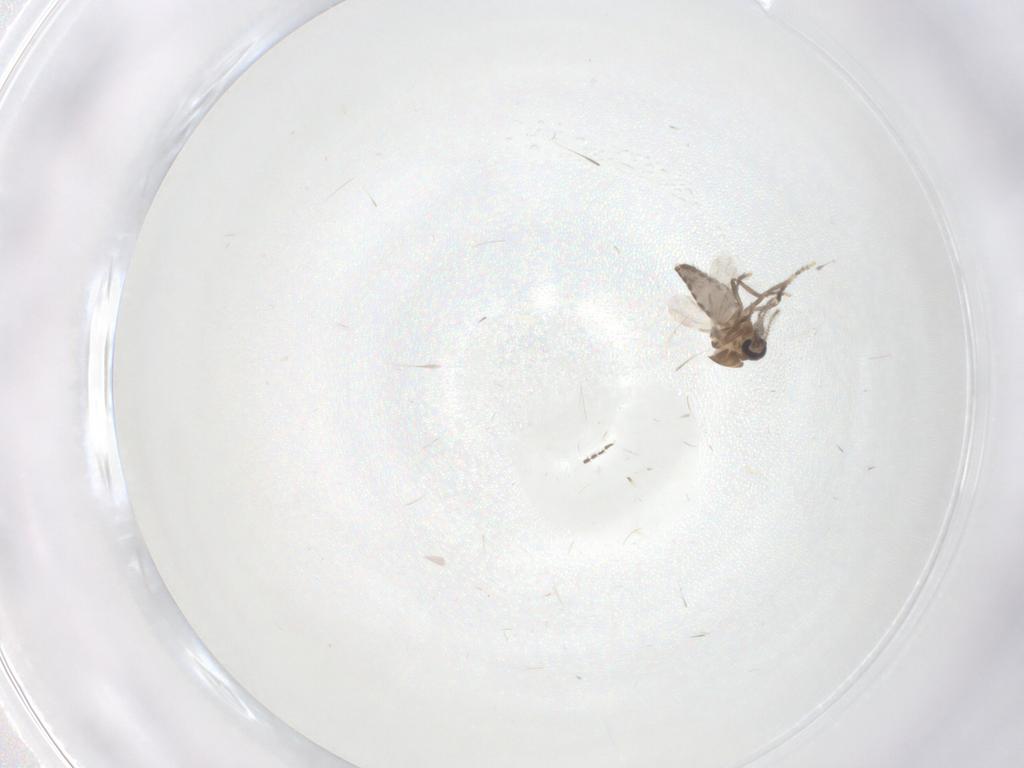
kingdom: Animalia
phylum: Arthropoda
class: Insecta
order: Diptera
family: Ceratopogonidae
